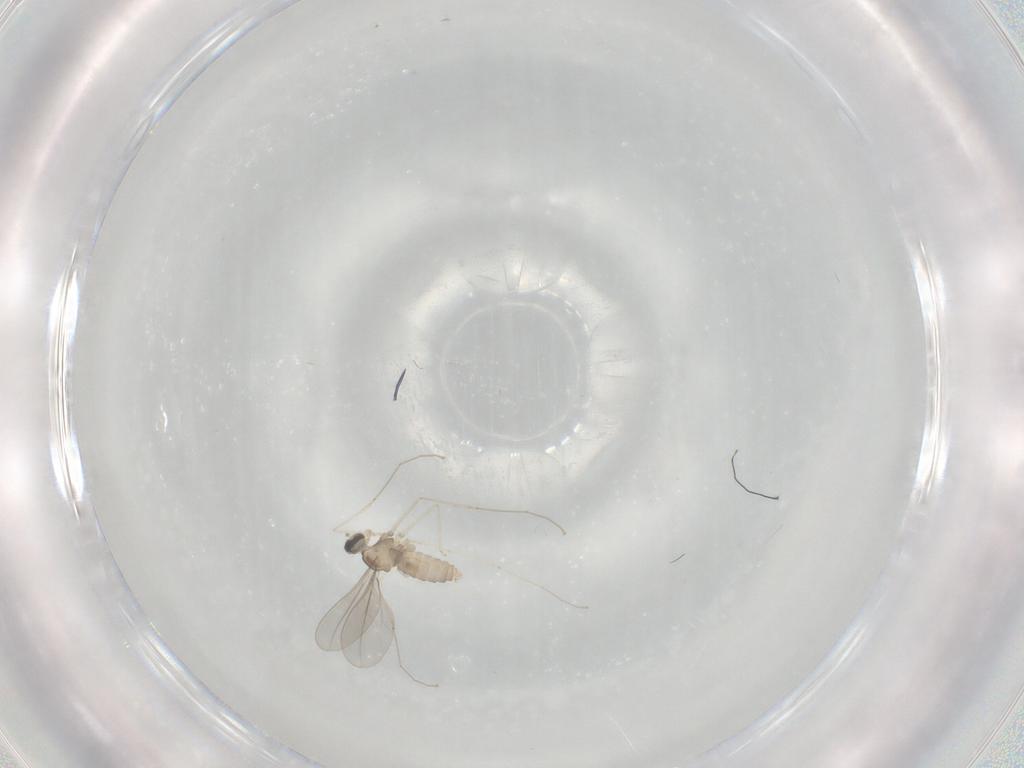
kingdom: Animalia
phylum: Arthropoda
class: Insecta
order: Diptera
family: Cecidomyiidae
